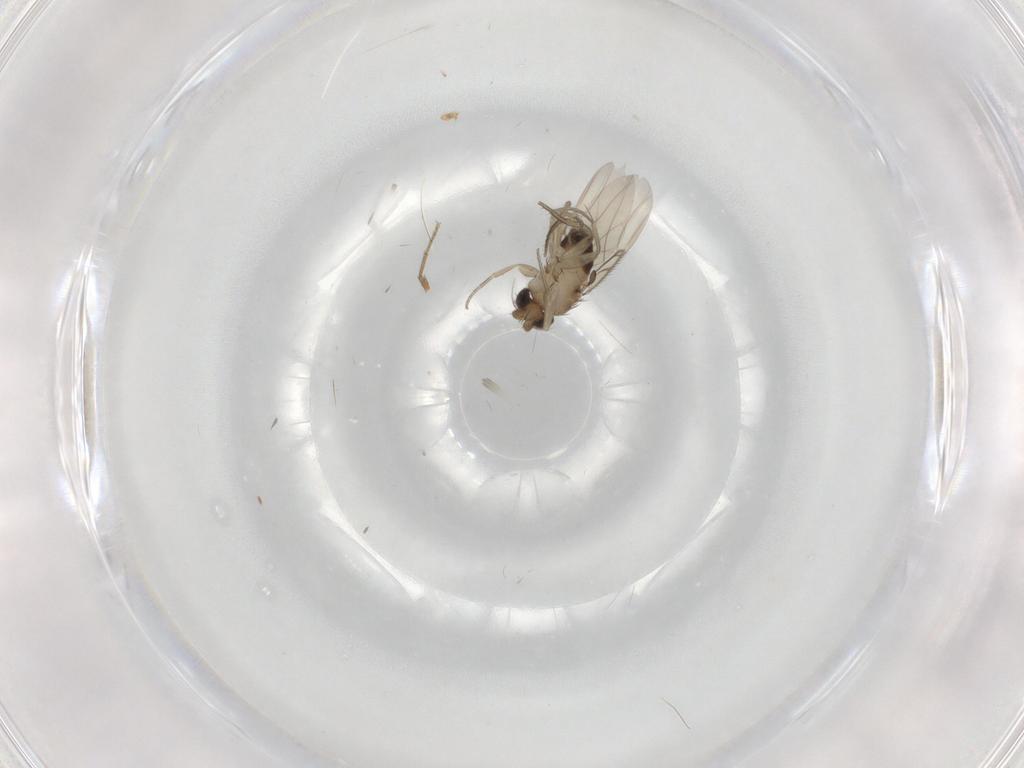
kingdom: Animalia
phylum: Arthropoda
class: Insecta
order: Diptera
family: Phoridae
